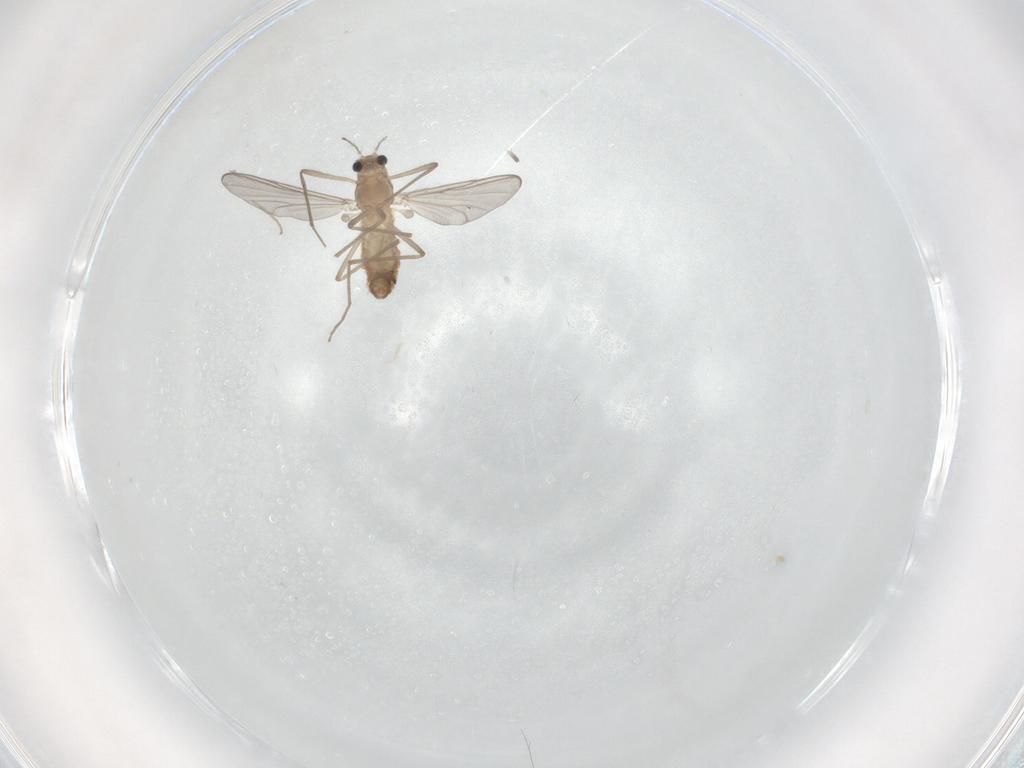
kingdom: Animalia
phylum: Arthropoda
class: Insecta
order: Diptera
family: Chironomidae
